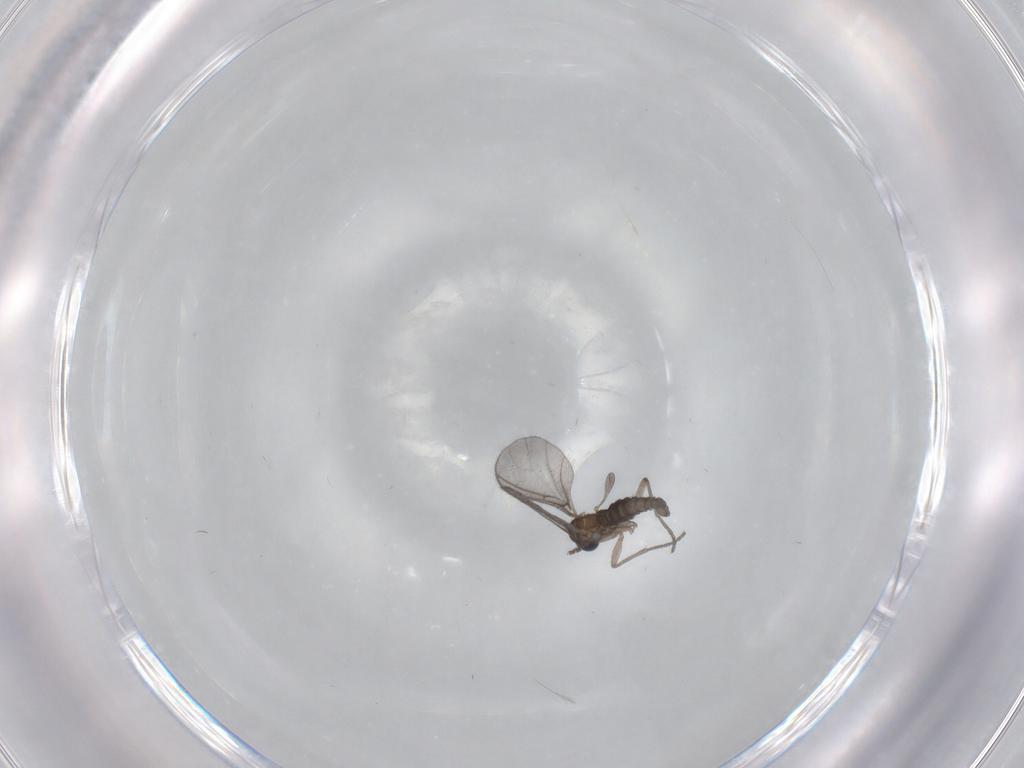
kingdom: Animalia
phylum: Arthropoda
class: Insecta
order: Diptera
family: Sciaridae
